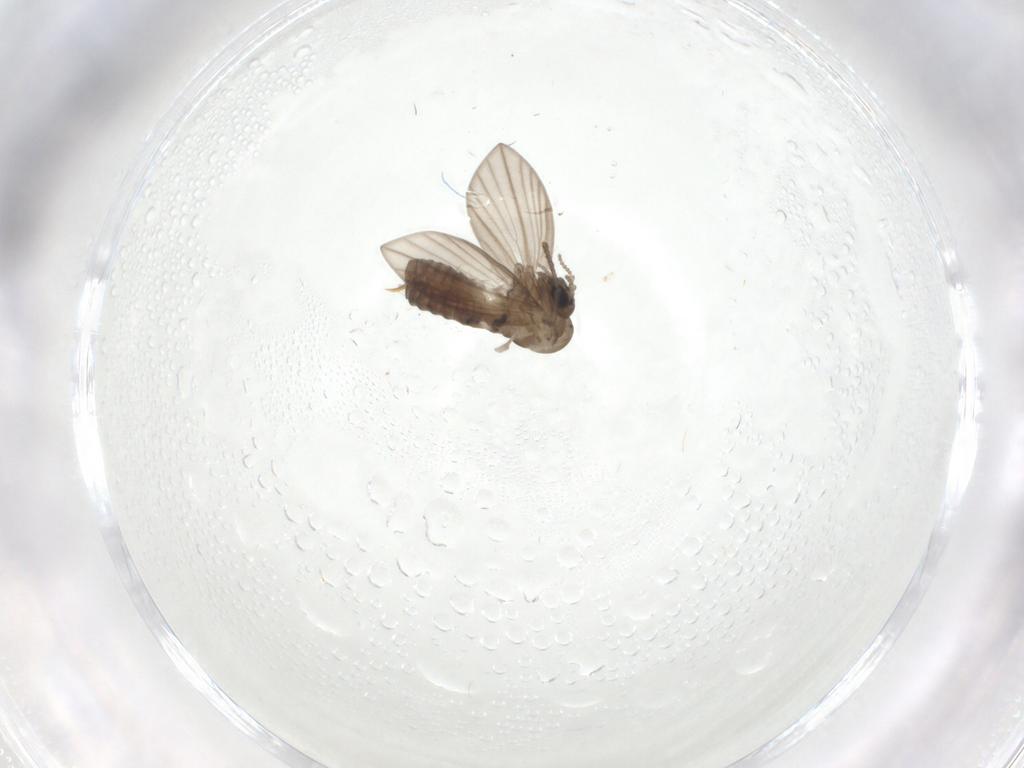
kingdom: Animalia
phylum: Arthropoda
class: Insecta
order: Diptera
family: Psychodidae
